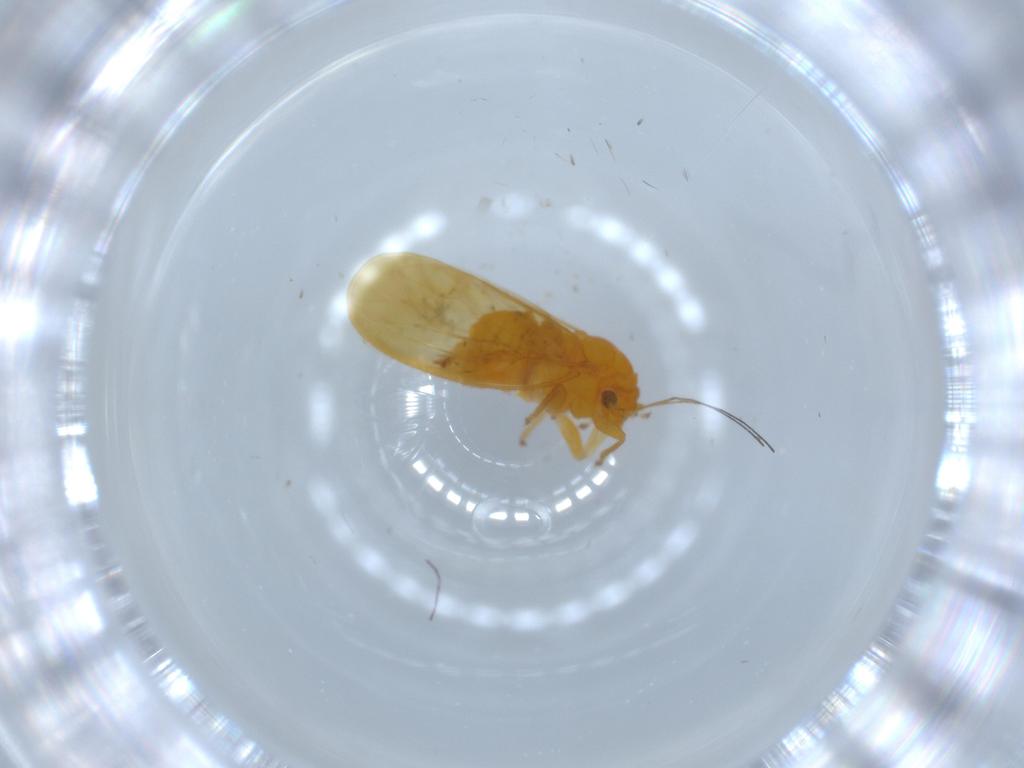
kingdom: Animalia
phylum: Arthropoda
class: Insecta
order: Hemiptera
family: Psyllidae
